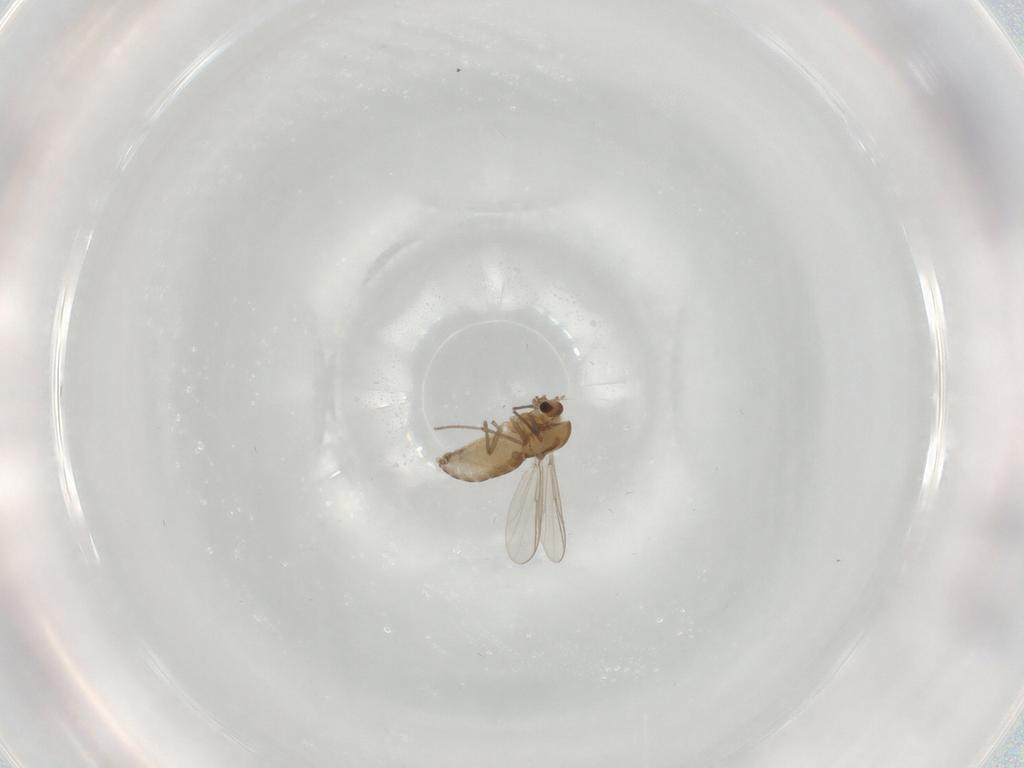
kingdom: Animalia
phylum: Arthropoda
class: Insecta
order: Diptera
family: Chironomidae
